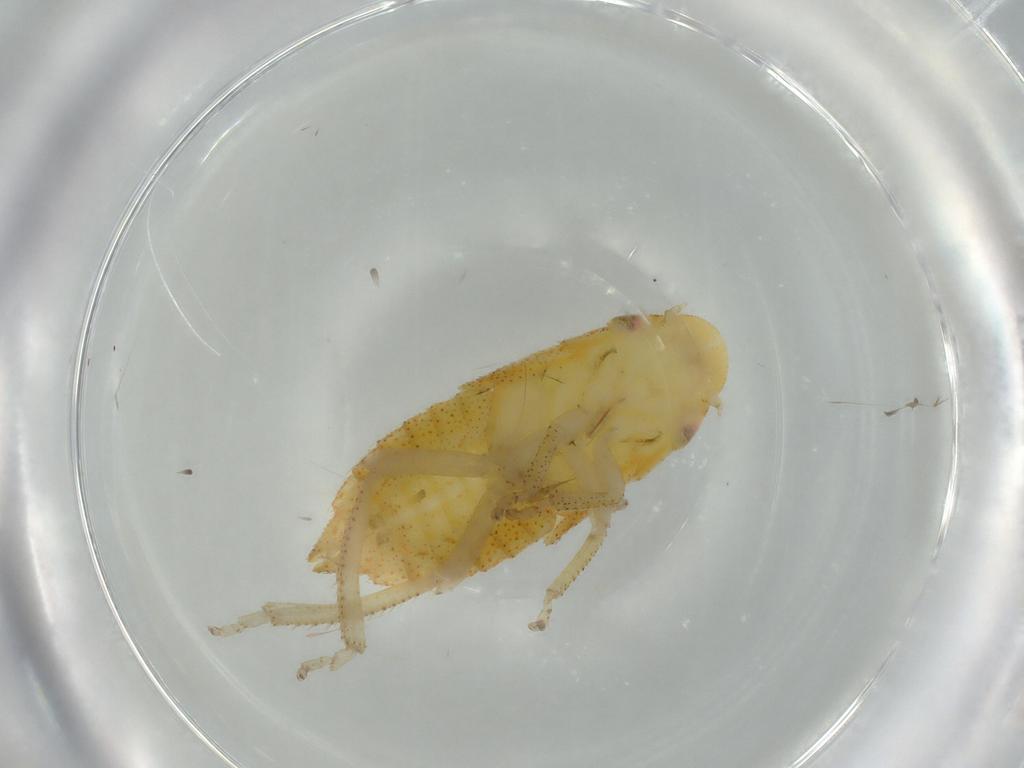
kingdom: Animalia
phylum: Arthropoda
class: Insecta
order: Hemiptera
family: Cicadellidae
